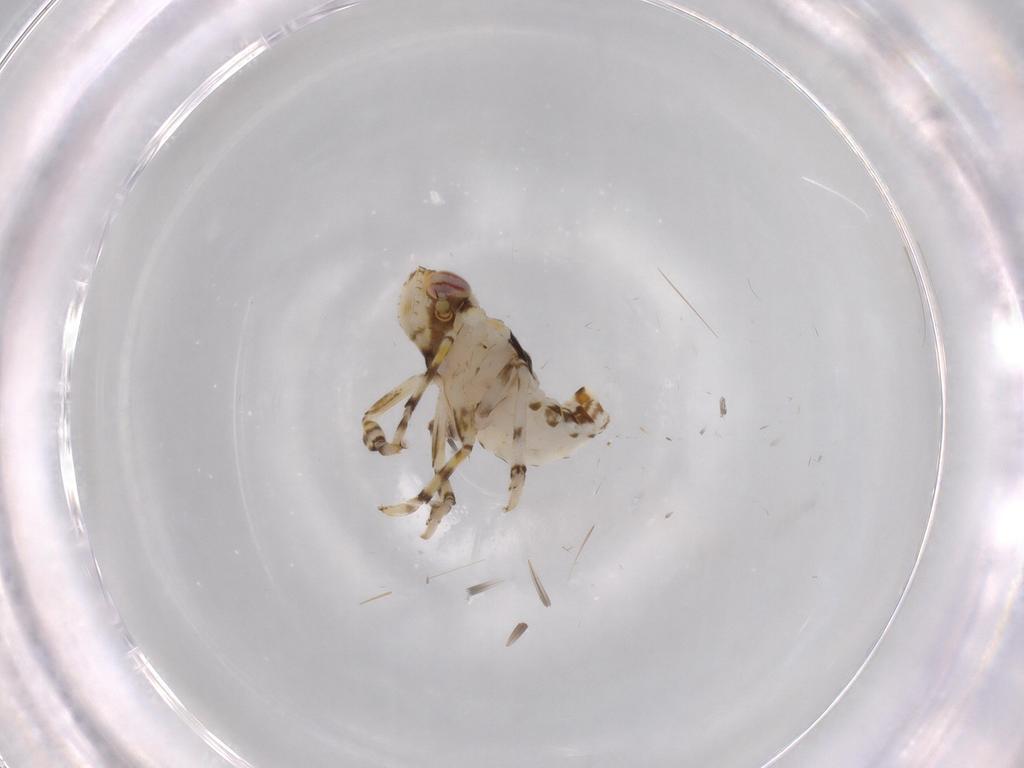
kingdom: Animalia
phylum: Arthropoda
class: Insecta
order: Hemiptera
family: Issidae
